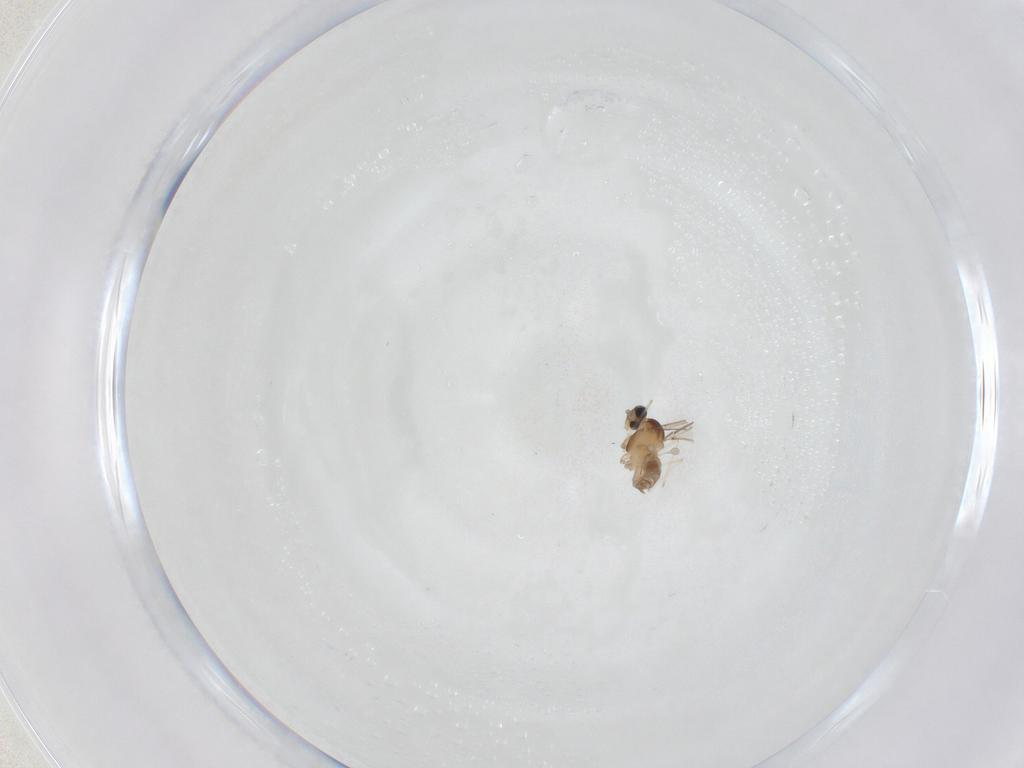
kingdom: Animalia
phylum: Arthropoda
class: Insecta
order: Diptera
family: Cecidomyiidae
